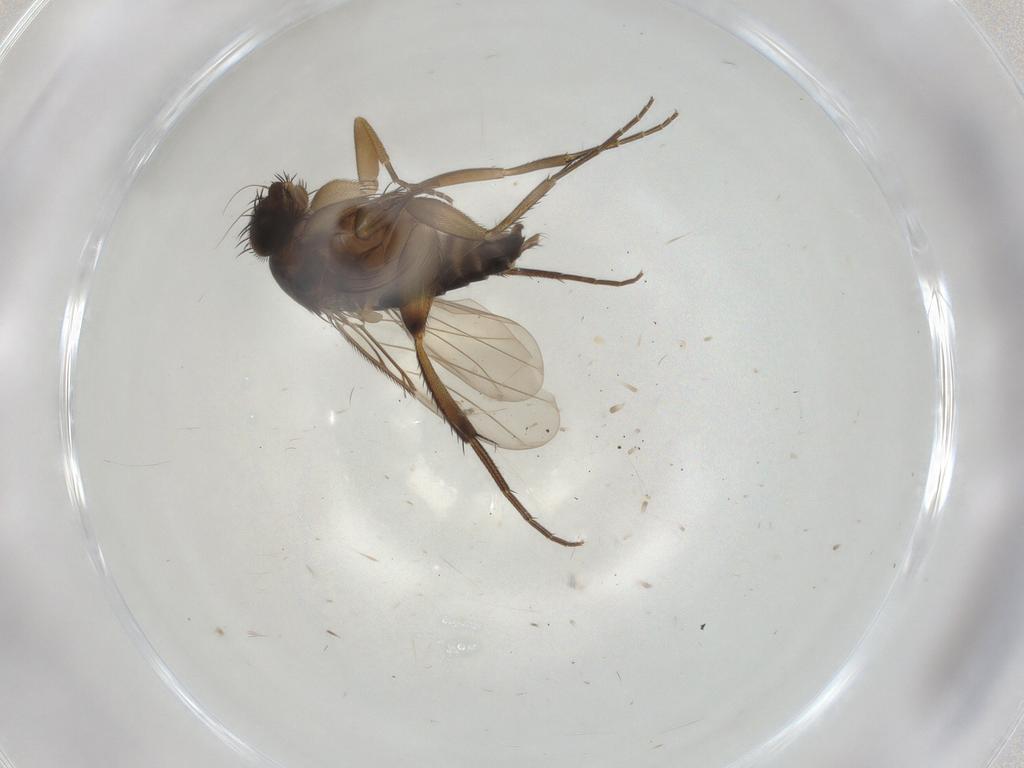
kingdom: Animalia
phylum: Arthropoda
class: Insecta
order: Diptera
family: Phoridae
